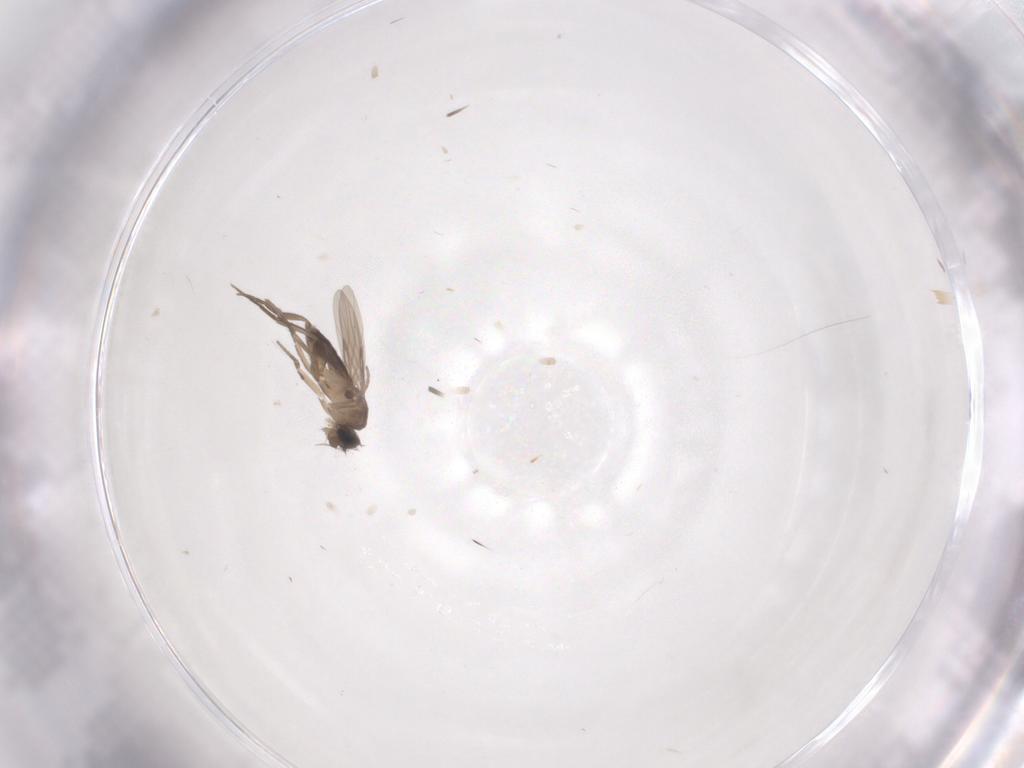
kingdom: Animalia
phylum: Arthropoda
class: Insecta
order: Diptera
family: Phoridae
